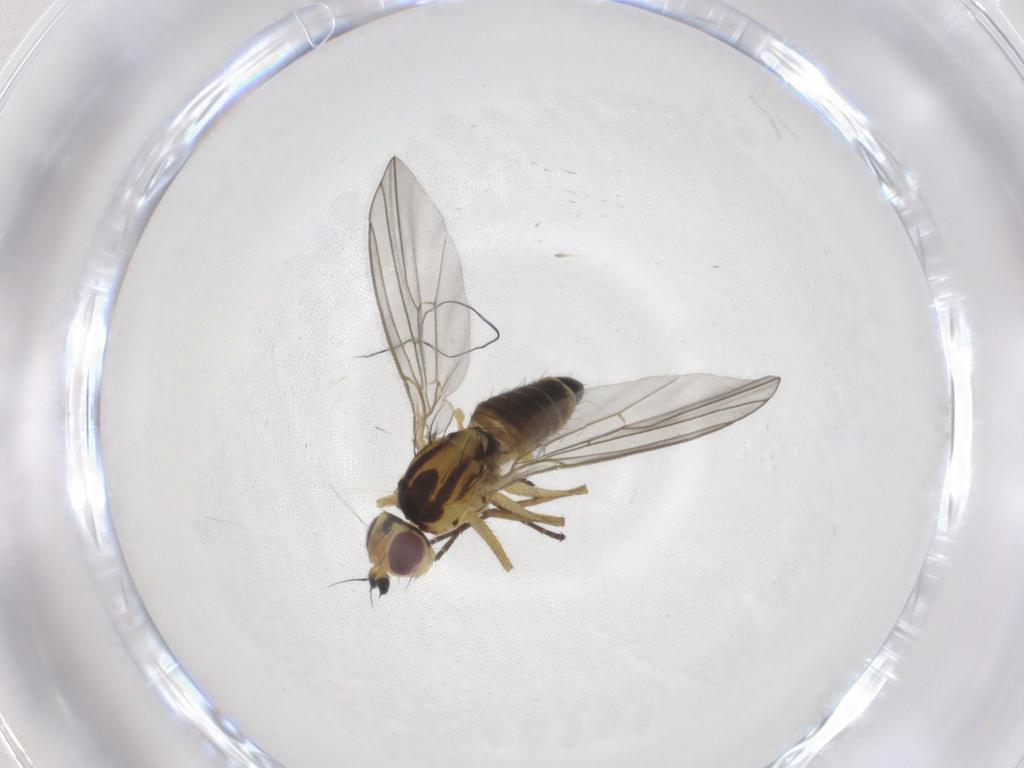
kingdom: Animalia
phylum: Arthropoda
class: Insecta
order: Diptera
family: Agromyzidae
